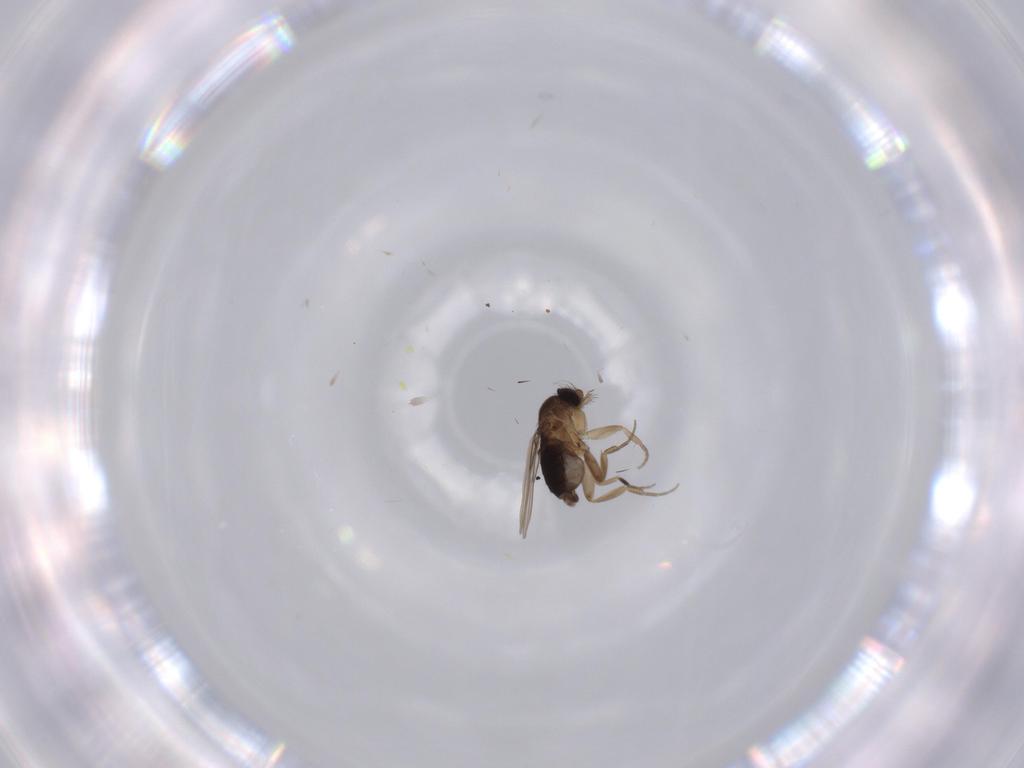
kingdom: Animalia
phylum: Arthropoda
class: Insecta
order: Diptera
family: Phoridae
